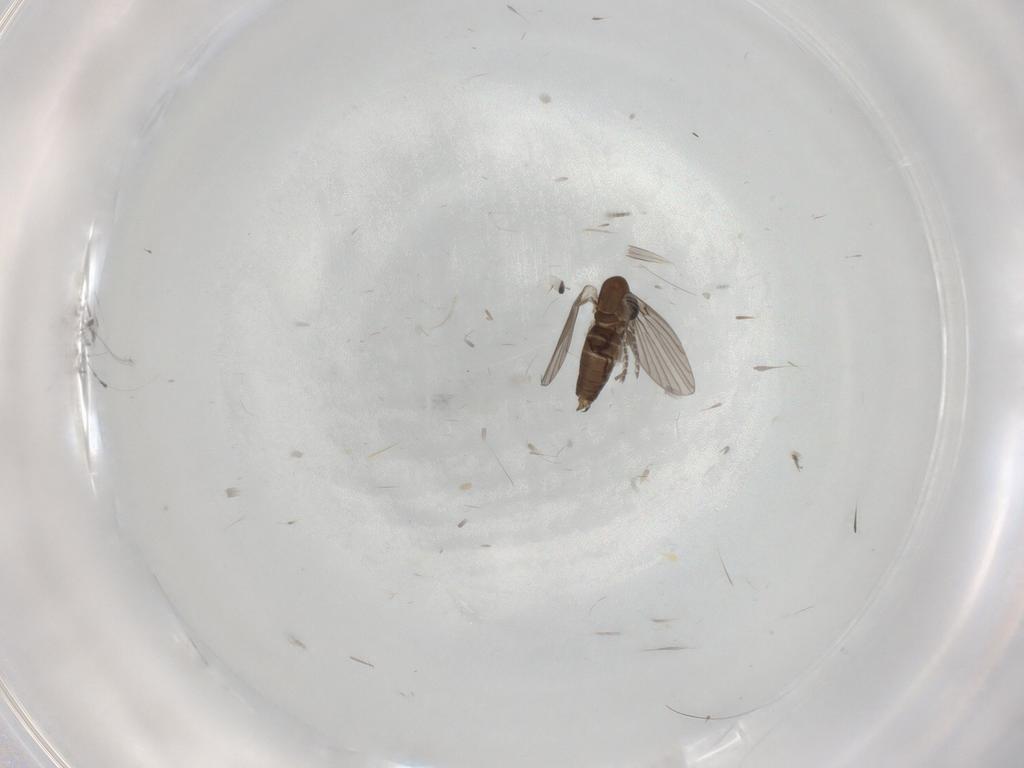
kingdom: Animalia
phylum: Arthropoda
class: Insecta
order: Diptera
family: Cecidomyiidae
